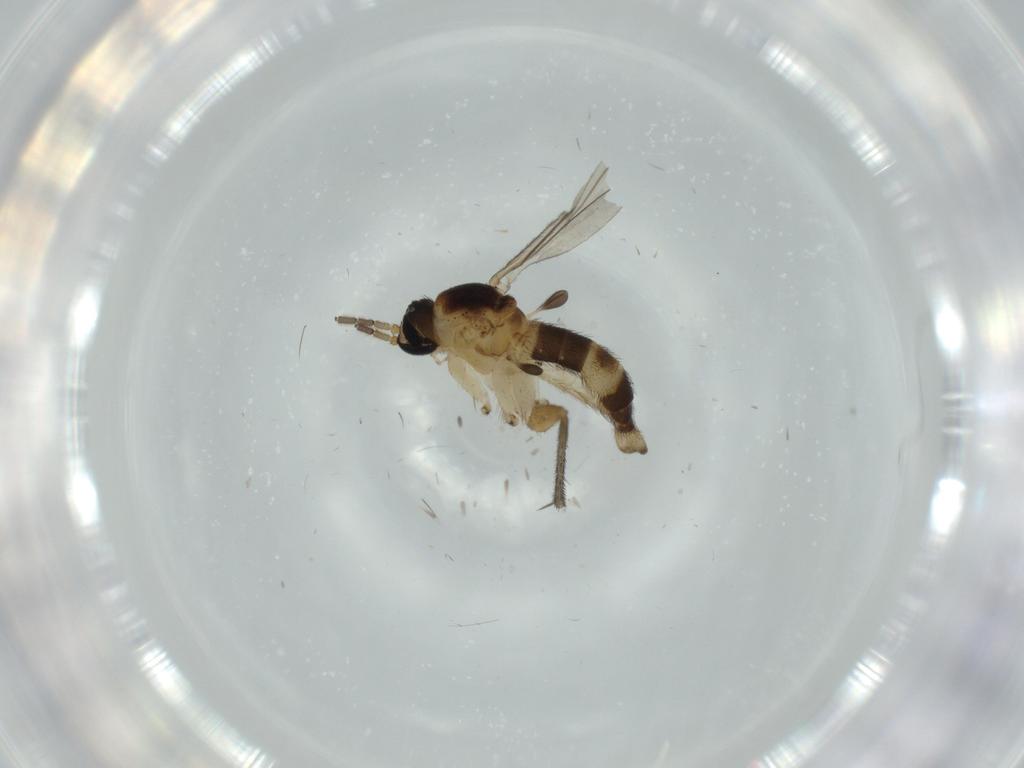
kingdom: Animalia
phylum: Arthropoda
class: Insecta
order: Diptera
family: Sciaridae
